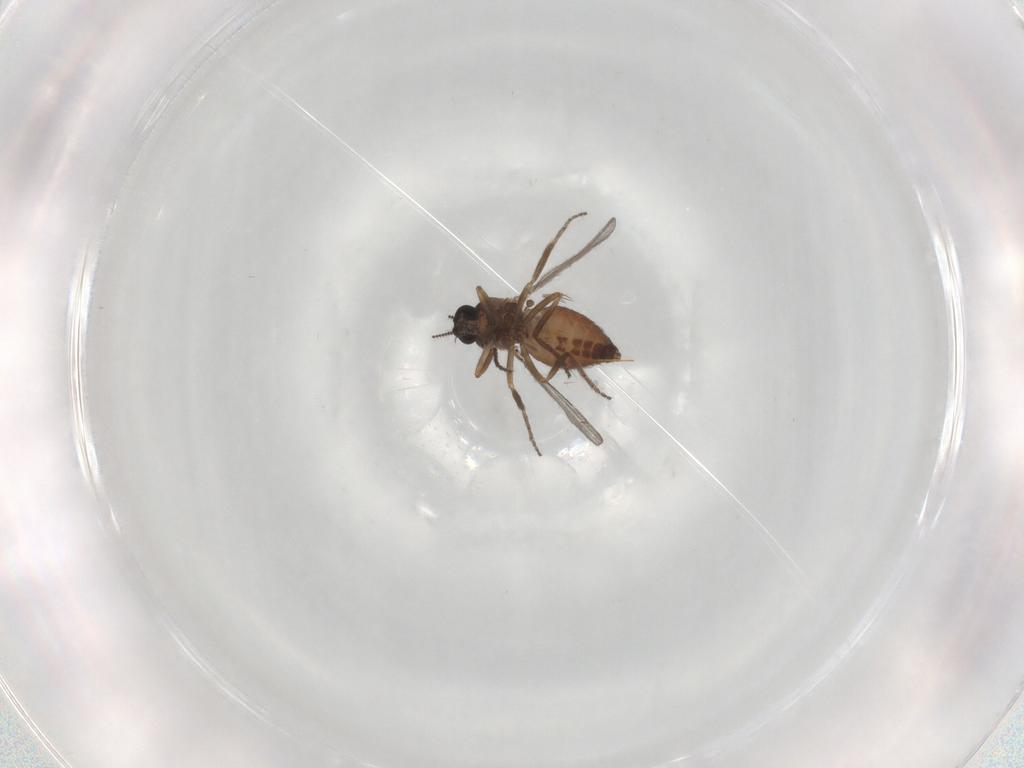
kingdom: Animalia
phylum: Arthropoda
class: Insecta
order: Diptera
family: Phoridae
